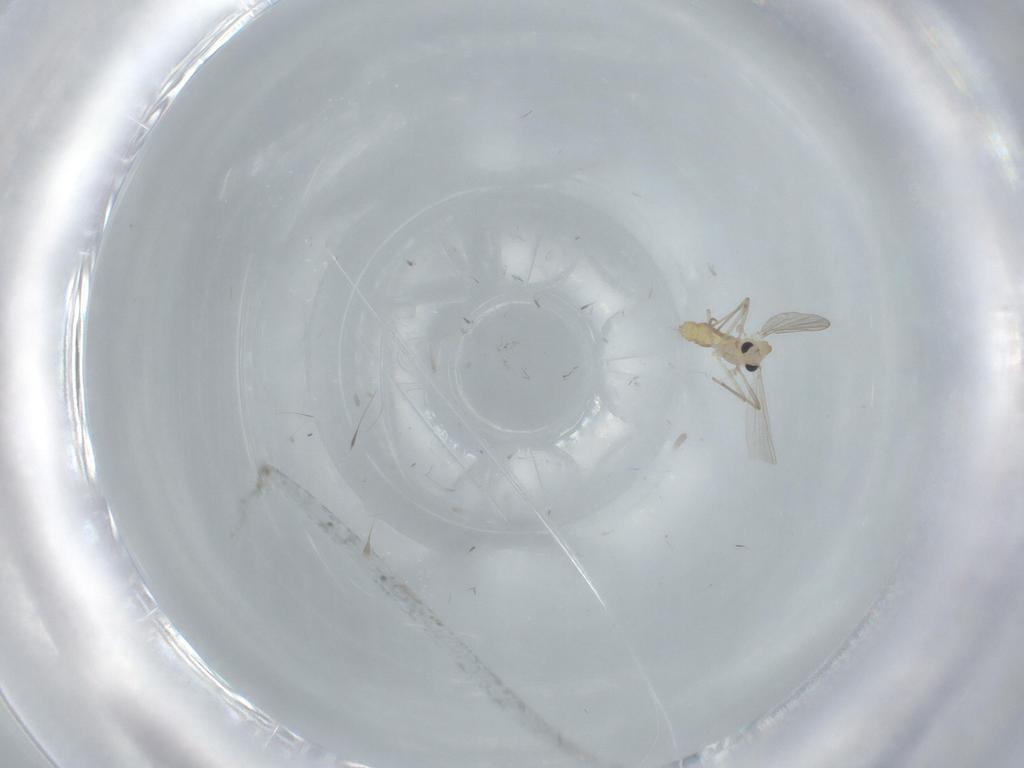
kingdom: Animalia
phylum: Arthropoda
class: Insecta
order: Diptera
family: Sphaeroceridae
